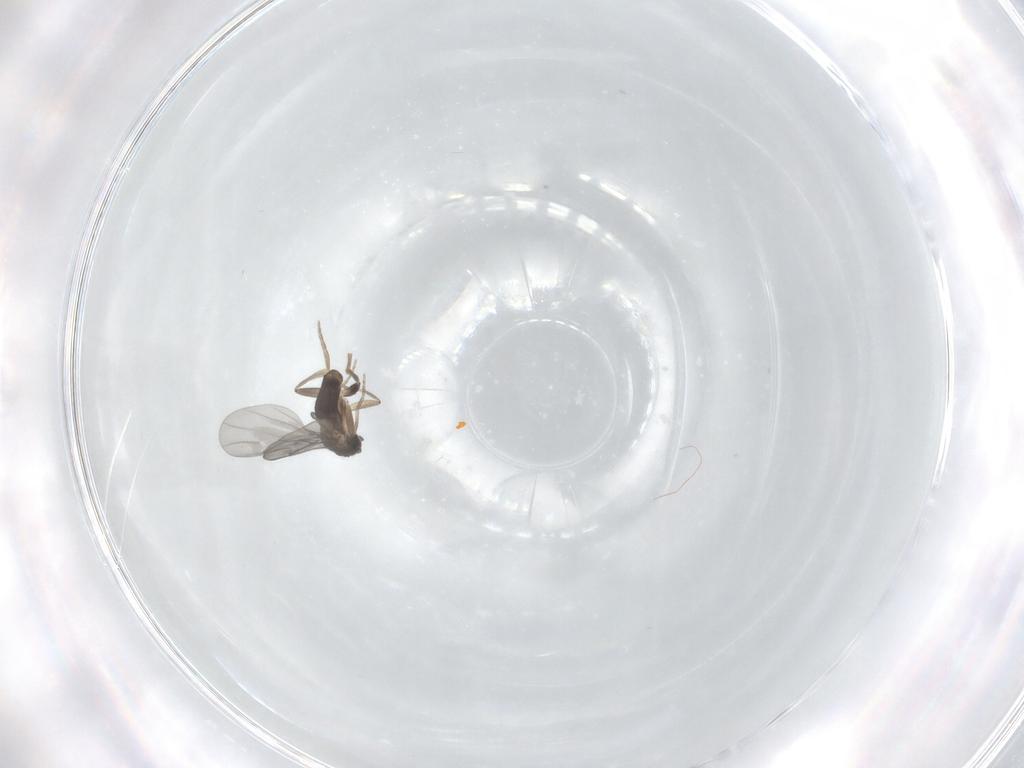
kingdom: Animalia
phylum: Arthropoda
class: Insecta
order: Diptera
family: Phoridae
